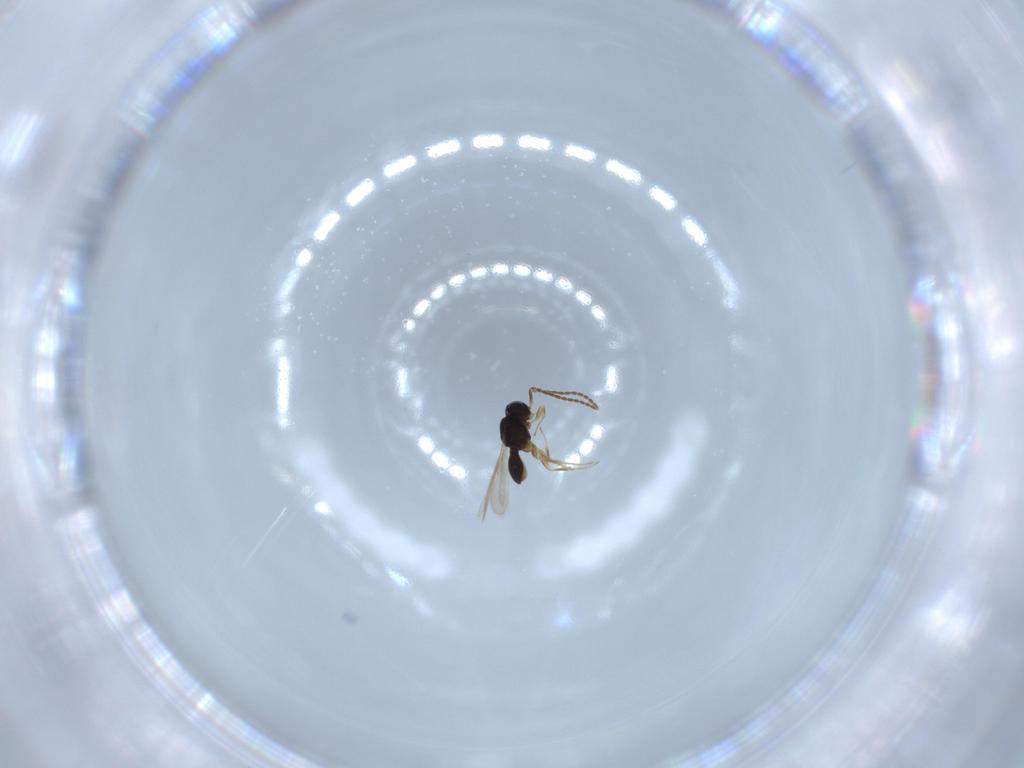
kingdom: Animalia
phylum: Arthropoda
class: Insecta
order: Hymenoptera
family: Scelionidae
